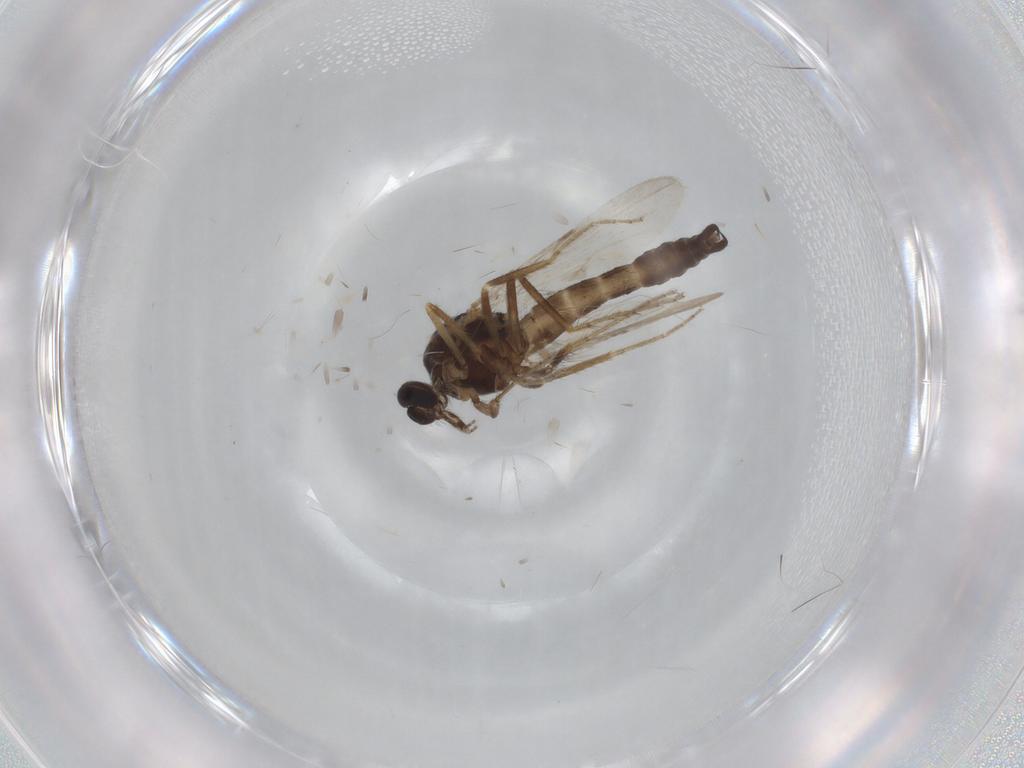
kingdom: Animalia
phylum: Arthropoda
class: Insecta
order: Diptera
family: Ceratopogonidae
